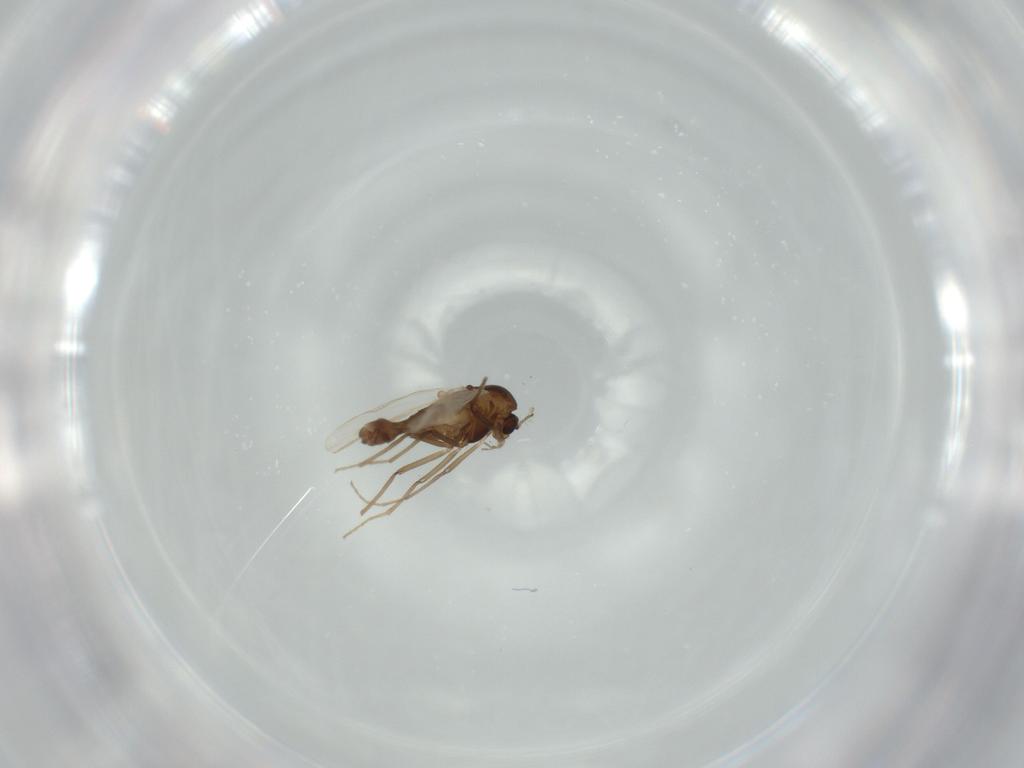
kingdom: Animalia
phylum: Arthropoda
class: Insecta
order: Diptera
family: Chironomidae
